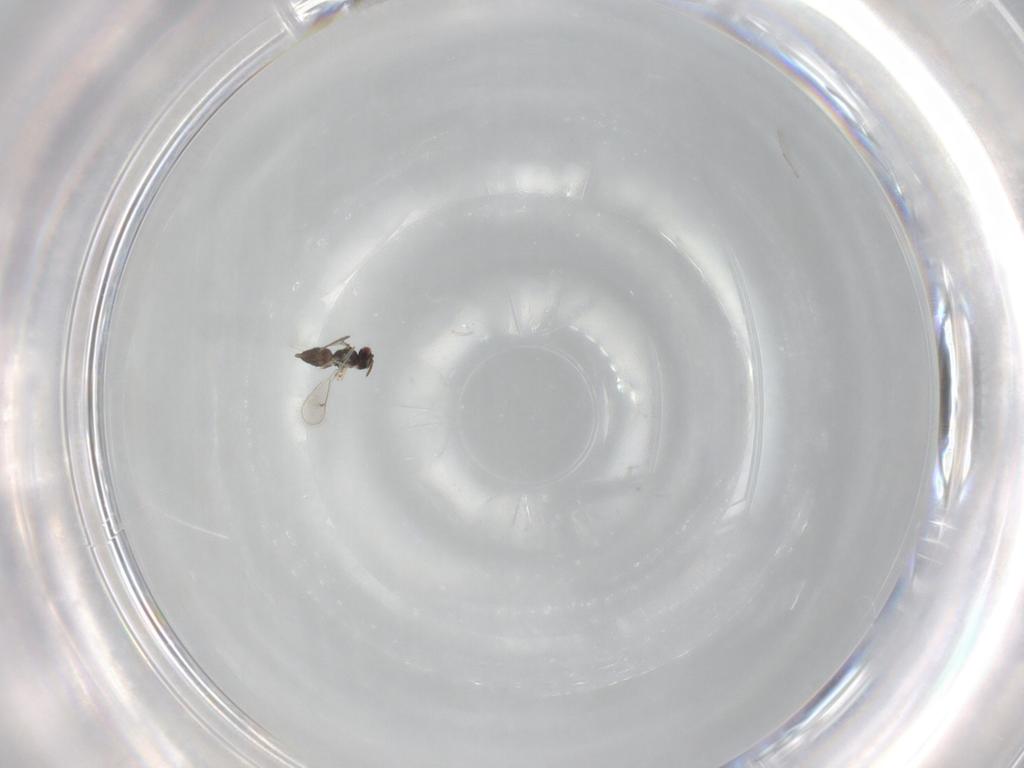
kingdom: Animalia
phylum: Arthropoda
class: Insecta
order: Hymenoptera
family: Eulophidae
